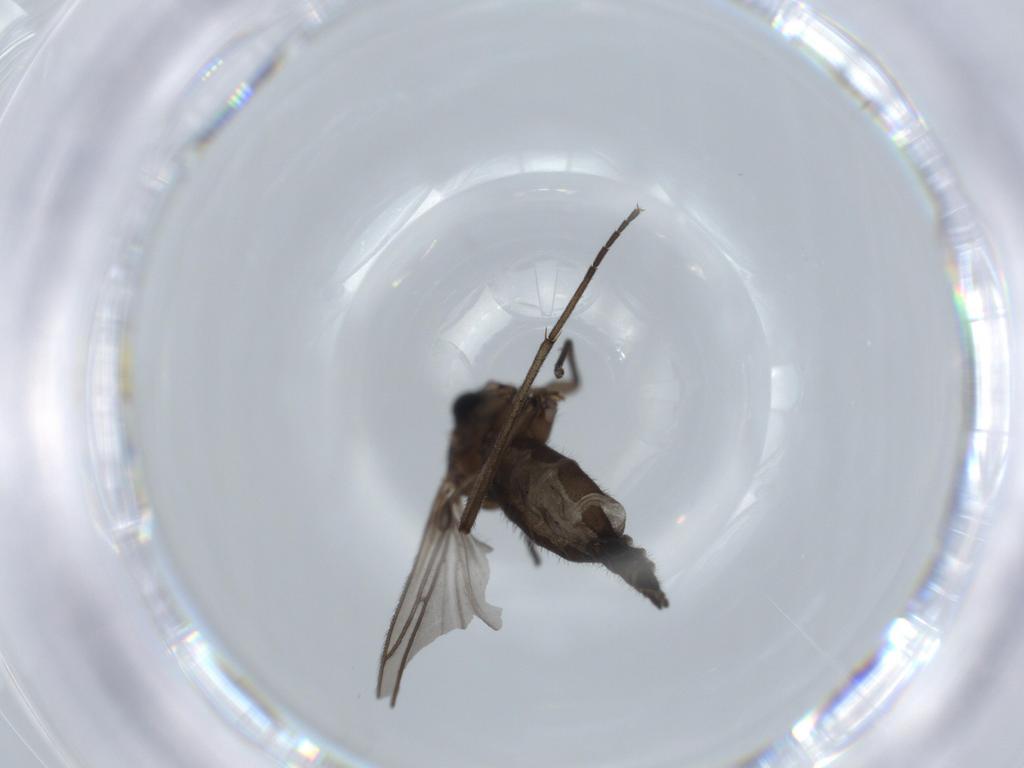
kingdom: Animalia
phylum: Arthropoda
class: Insecta
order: Diptera
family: Sciaridae
